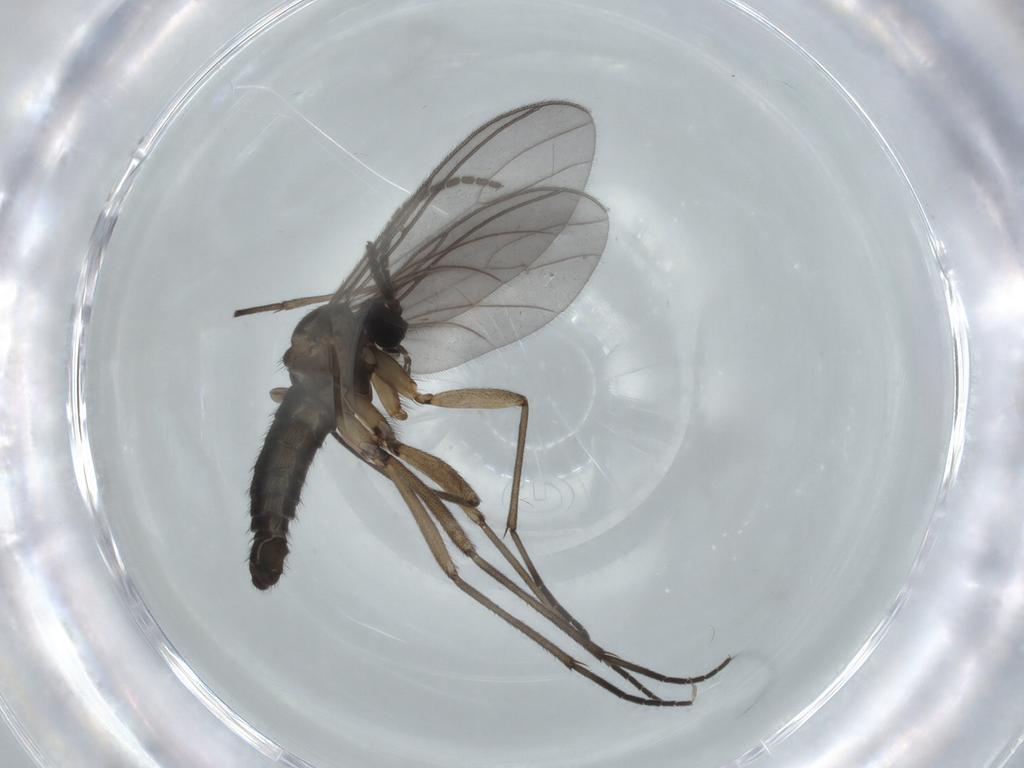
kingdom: Animalia
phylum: Arthropoda
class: Insecta
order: Diptera
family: Sciaridae
